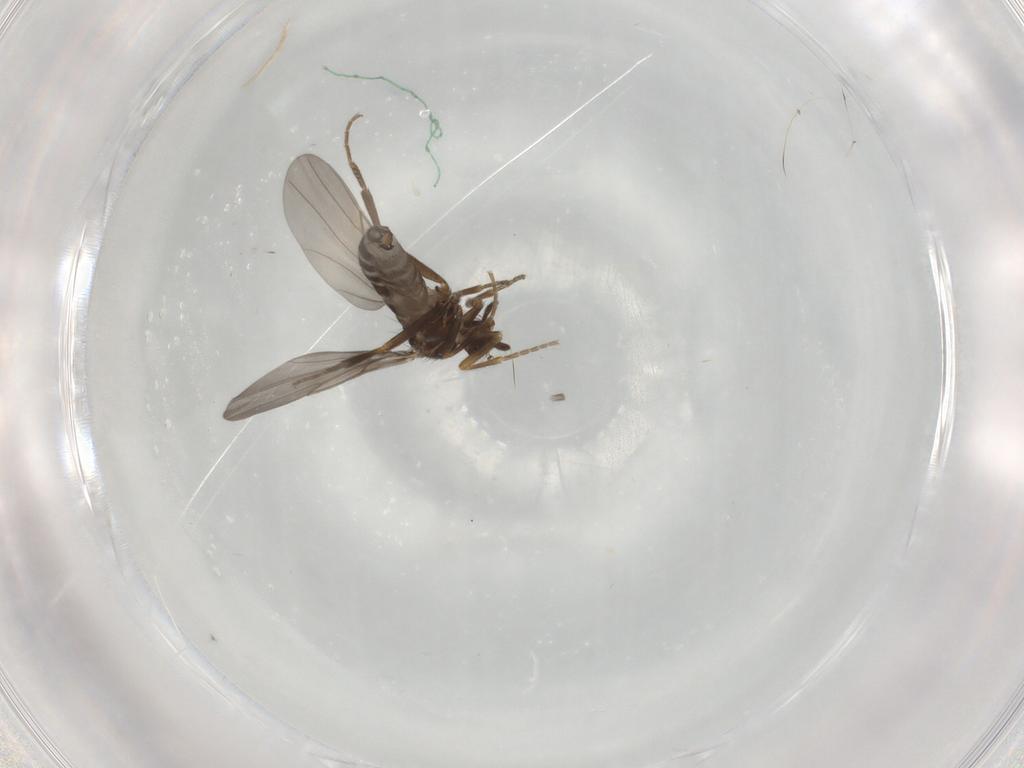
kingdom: Animalia
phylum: Arthropoda
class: Insecta
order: Diptera
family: Phoridae
